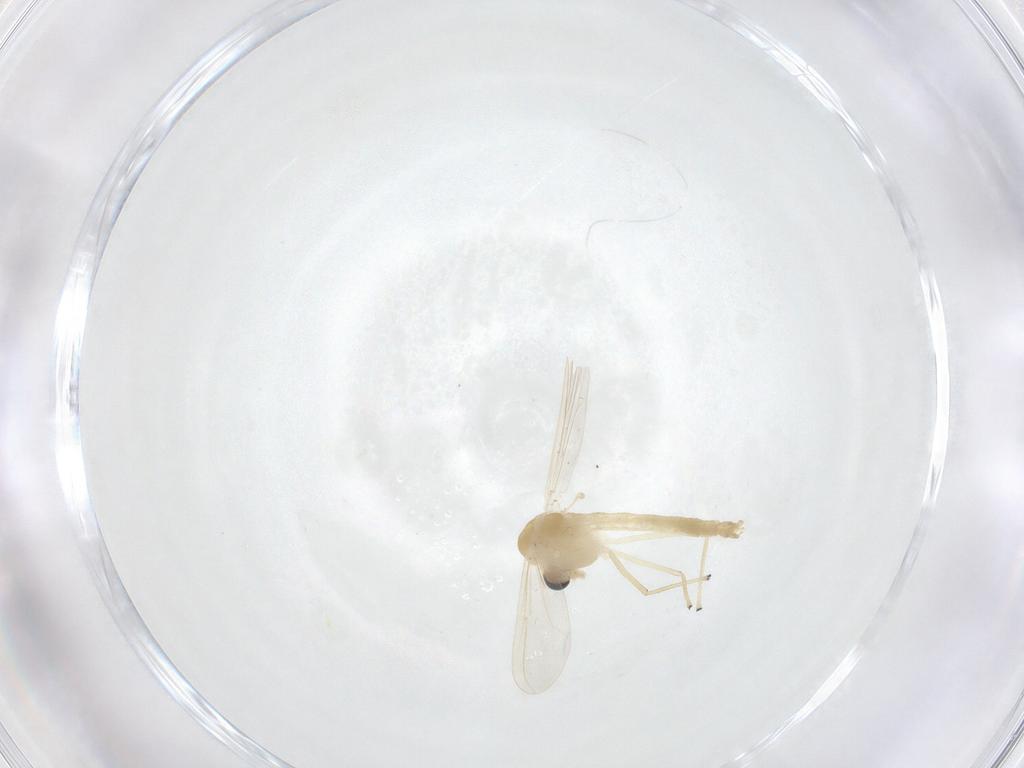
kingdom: Animalia
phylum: Arthropoda
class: Insecta
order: Diptera
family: Chironomidae
